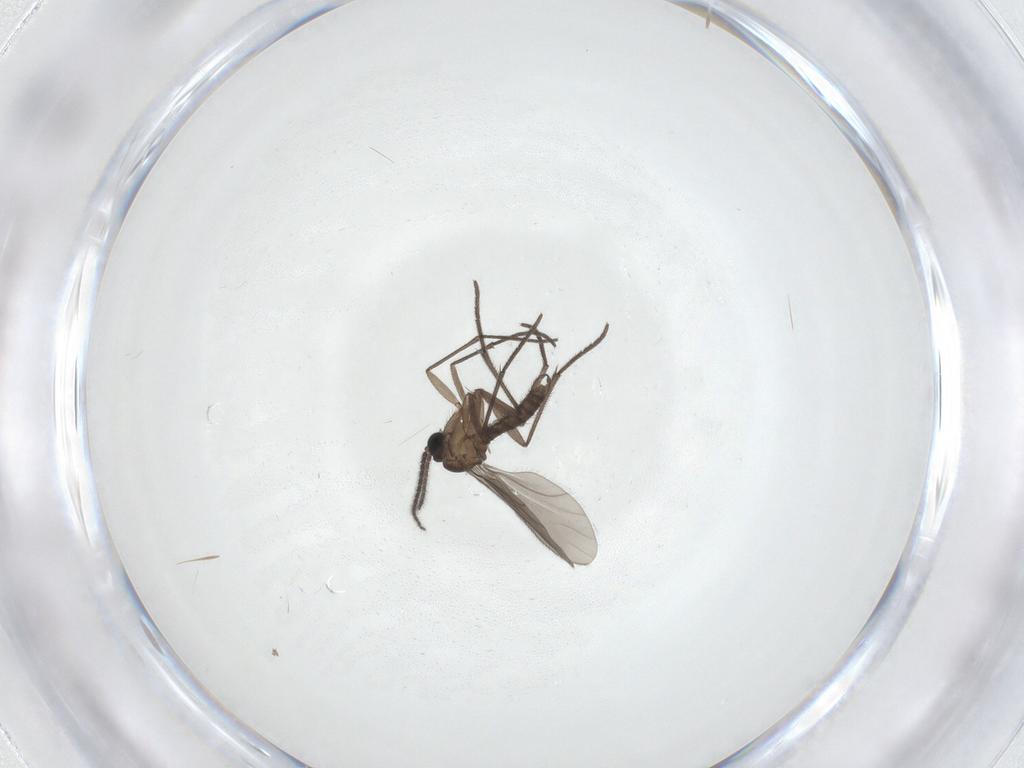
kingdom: Animalia
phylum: Arthropoda
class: Insecta
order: Diptera
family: Sciaridae
